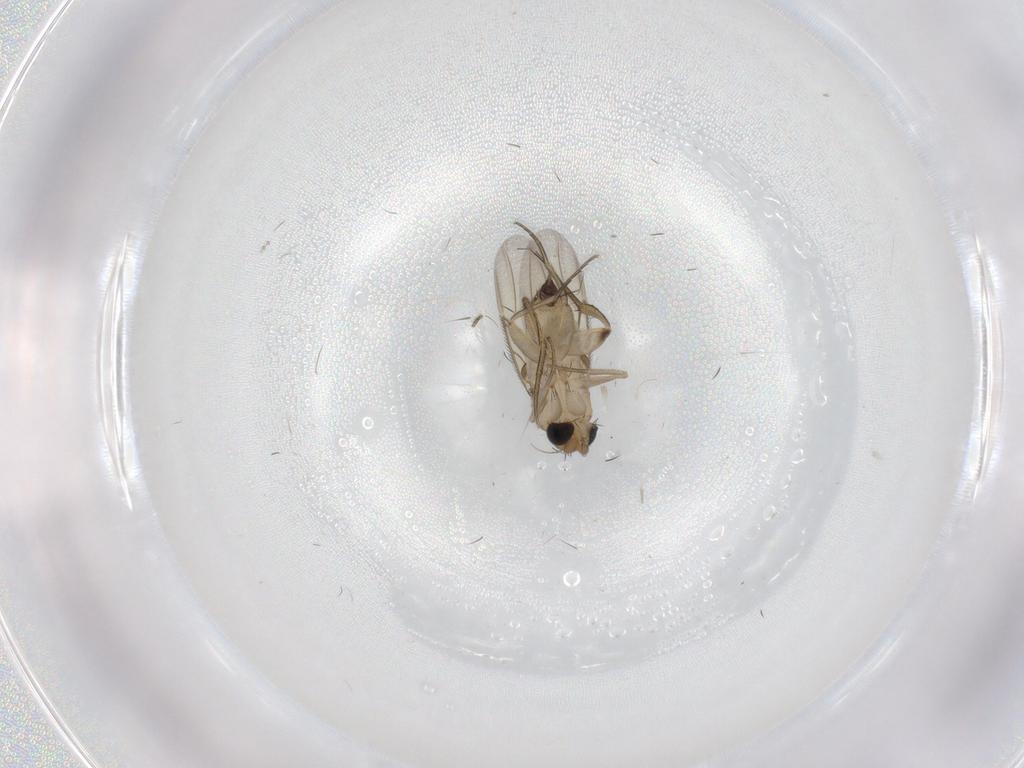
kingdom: Animalia
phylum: Arthropoda
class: Insecta
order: Diptera
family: Phoridae
